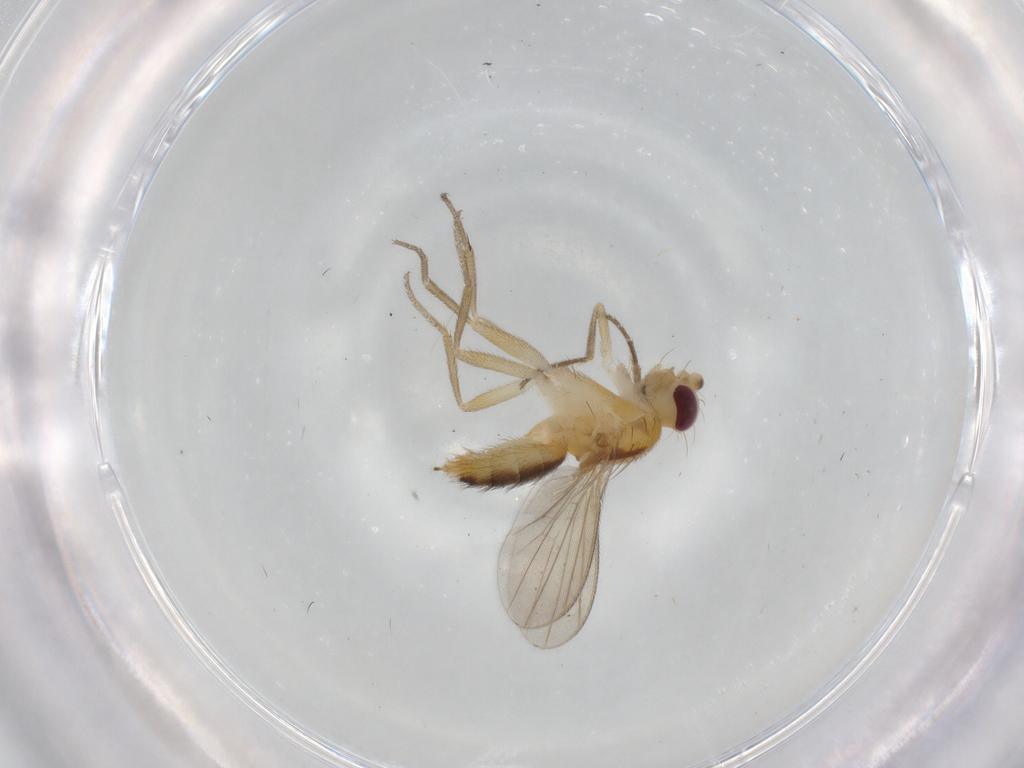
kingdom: Animalia
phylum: Arthropoda
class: Insecta
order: Diptera
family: Clusiidae
